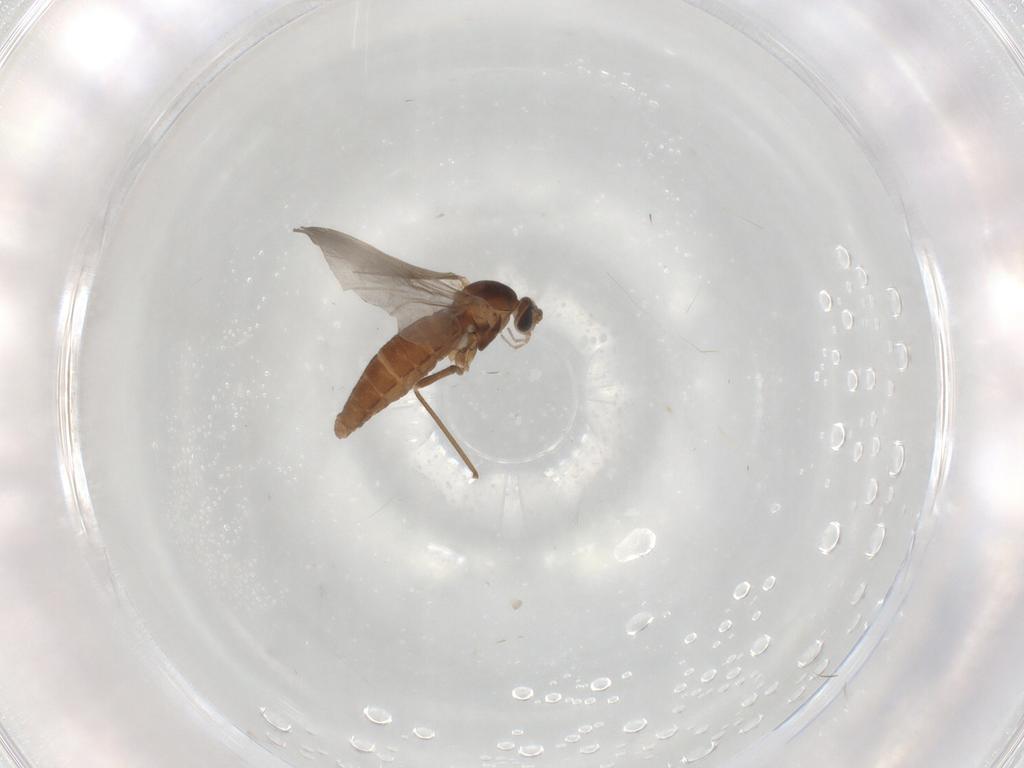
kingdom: Animalia
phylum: Arthropoda
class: Insecta
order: Diptera
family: Cecidomyiidae
